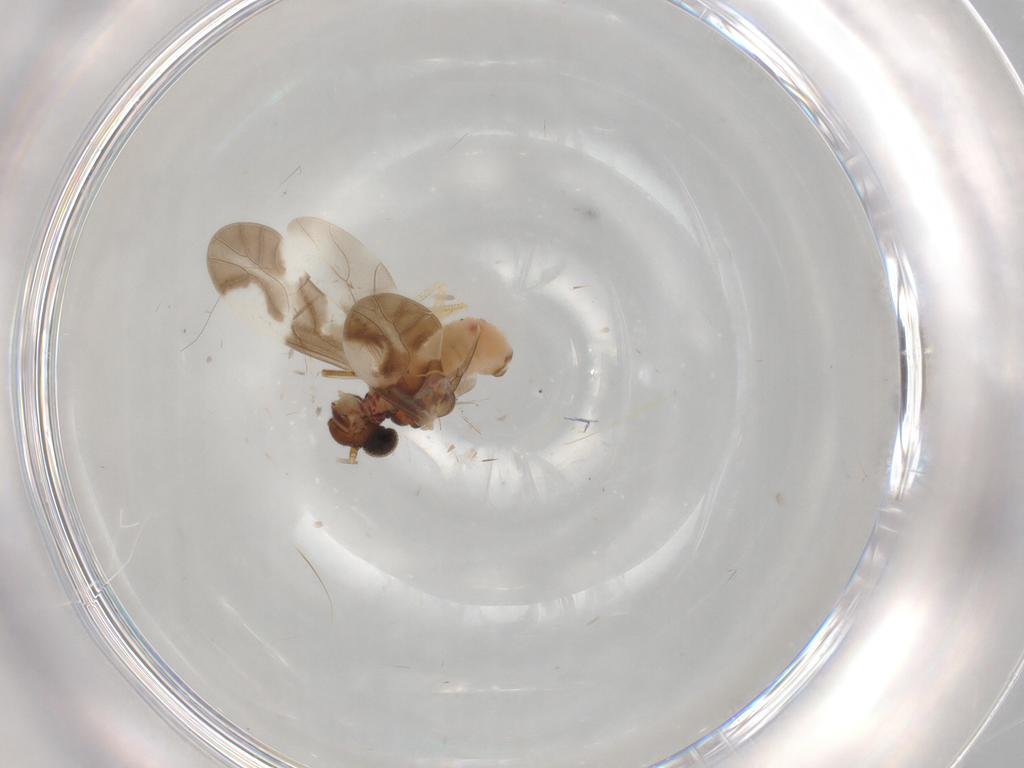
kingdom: Animalia
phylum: Arthropoda
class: Insecta
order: Psocodea
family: Caeciliusidae
